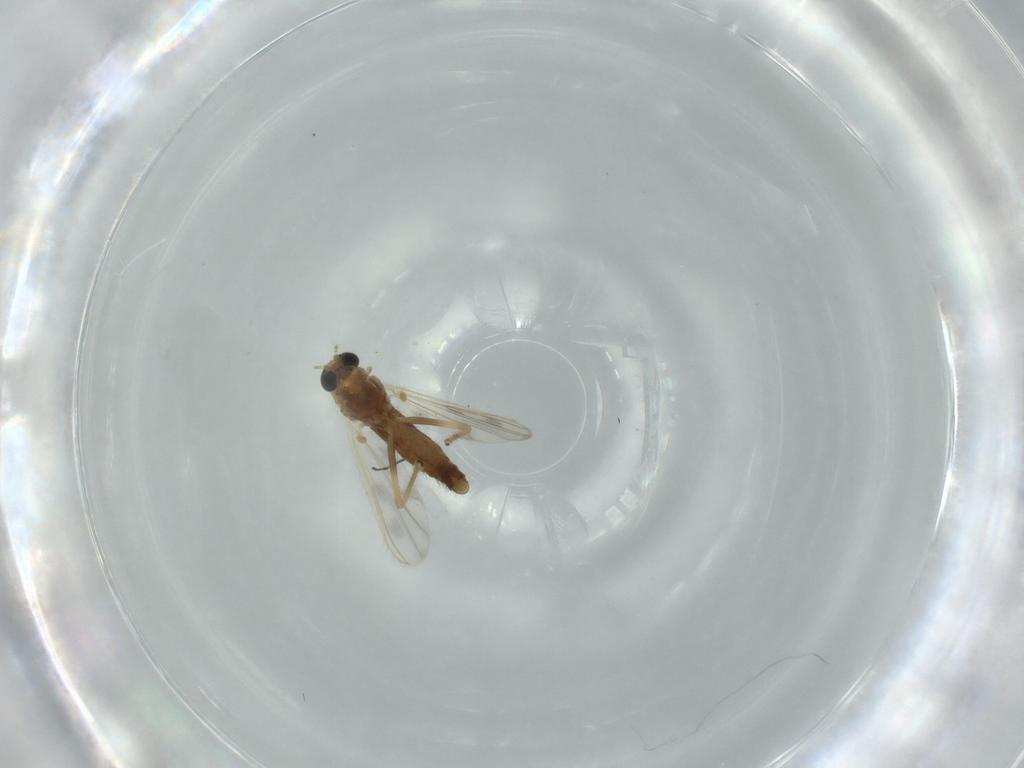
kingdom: Animalia
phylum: Arthropoda
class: Insecta
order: Diptera
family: Chironomidae
